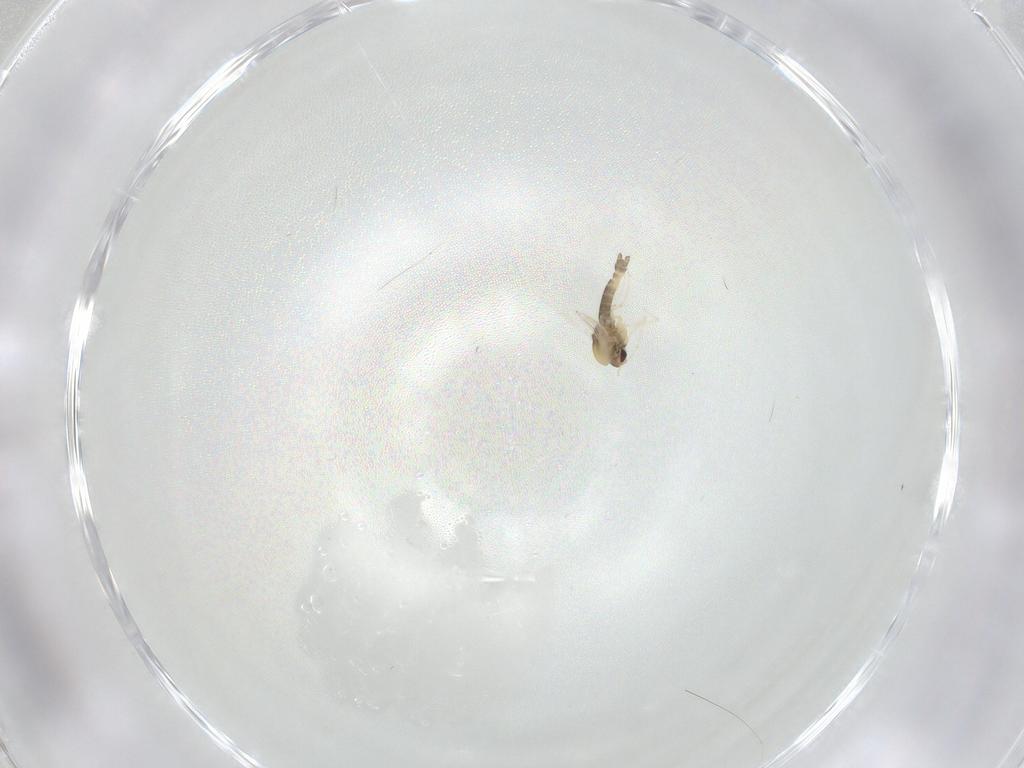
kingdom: Animalia
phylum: Arthropoda
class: Insecta
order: Diptera
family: Chironomidae
